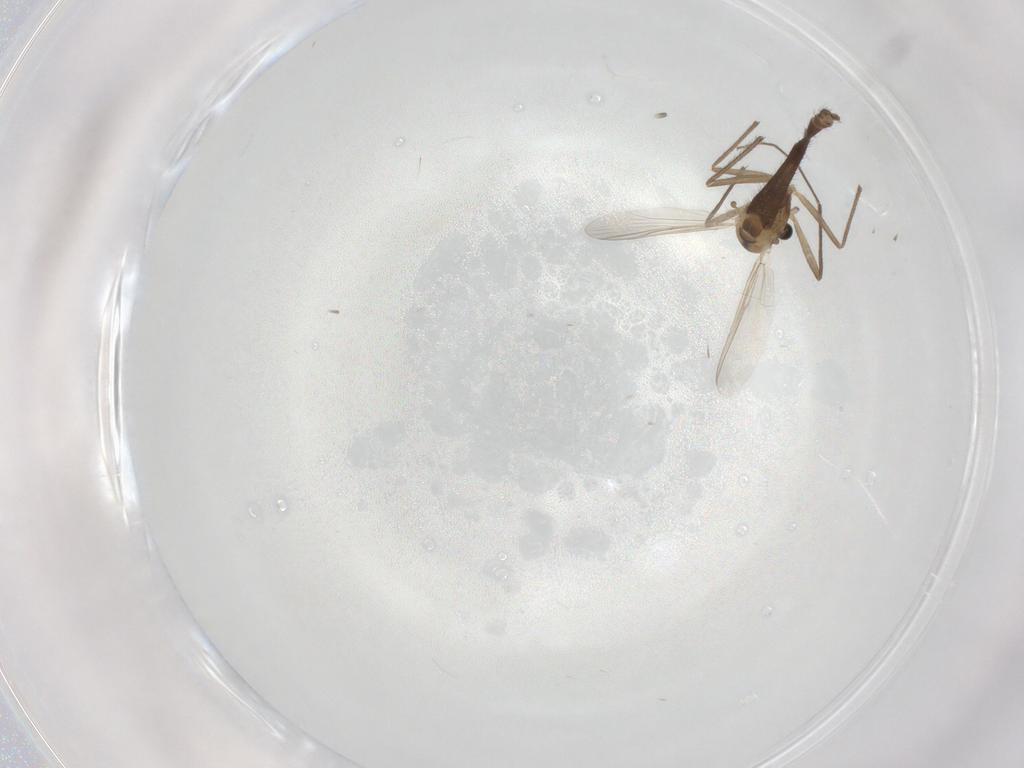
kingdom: Animalia
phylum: Arthropoda
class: Insecta
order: Diptera
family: Chironomidae
